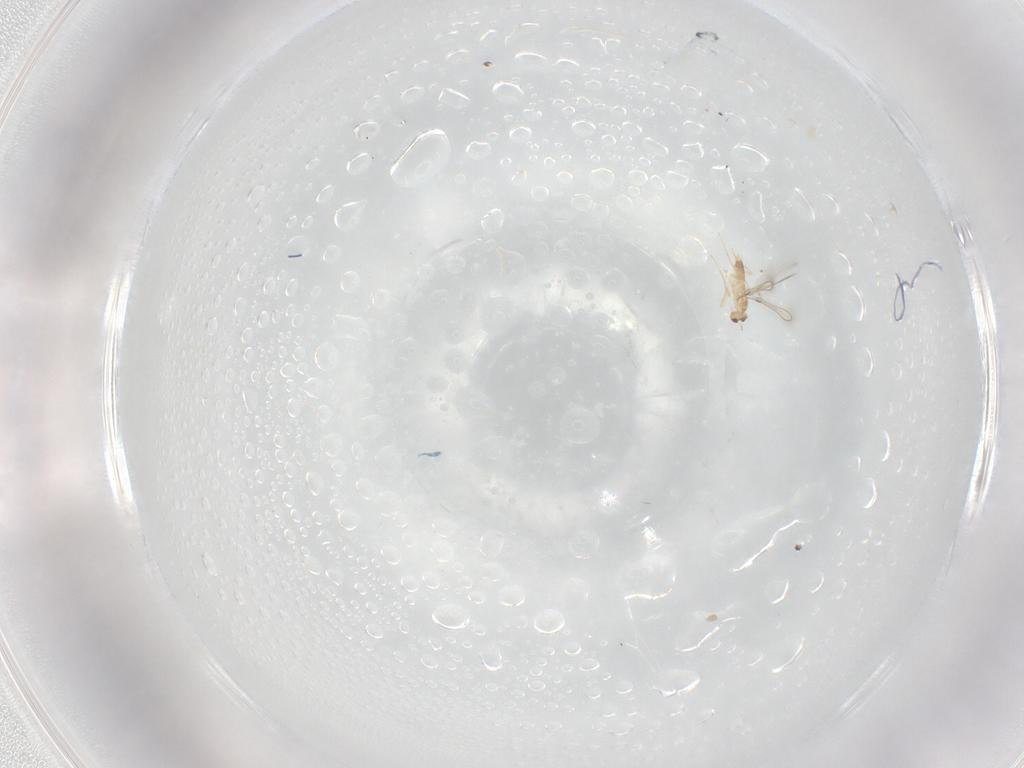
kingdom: Animalia
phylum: Arthropoda
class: Insecta
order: Hymenoptera
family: Mymaridae
